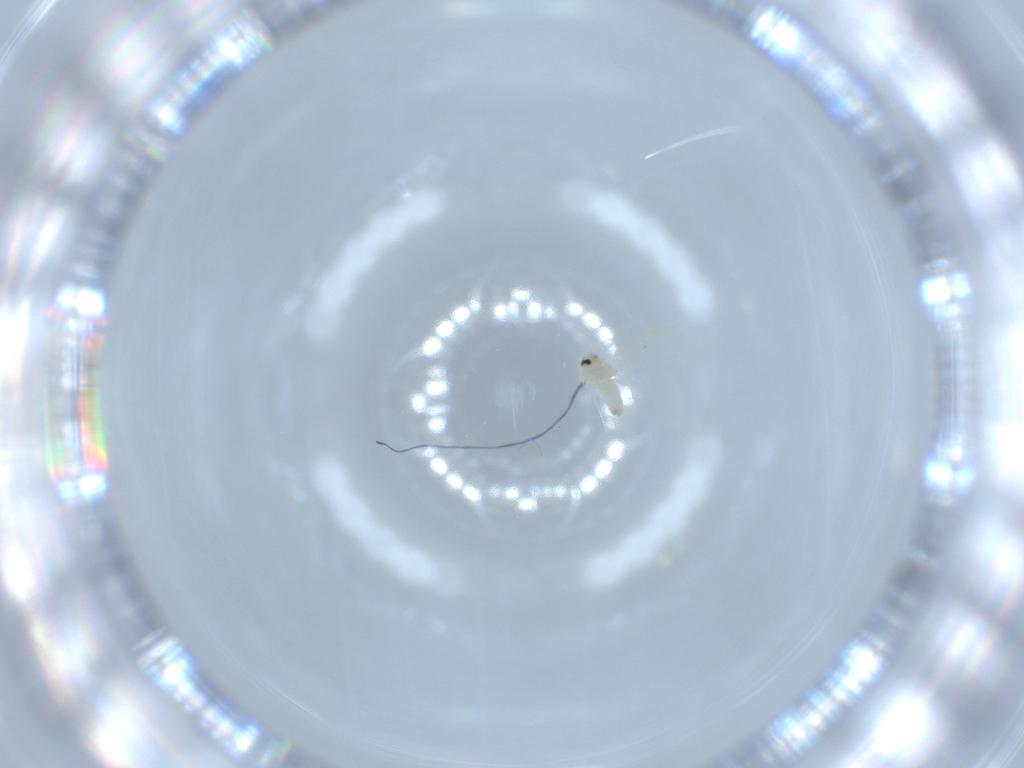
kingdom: Animalia
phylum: Arthropoda
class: Insecta
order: Hemiptera
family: Aleyrodidae
